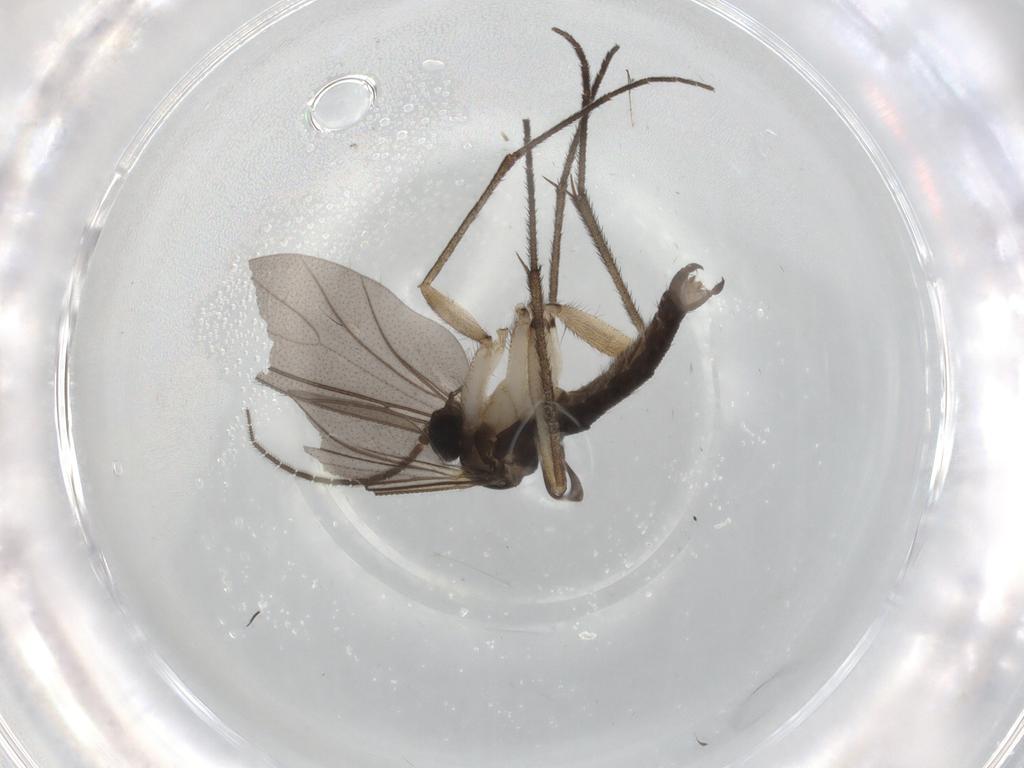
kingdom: Animalia
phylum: Arthropoda
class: Insecta
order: Diptera
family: Sciaridae
